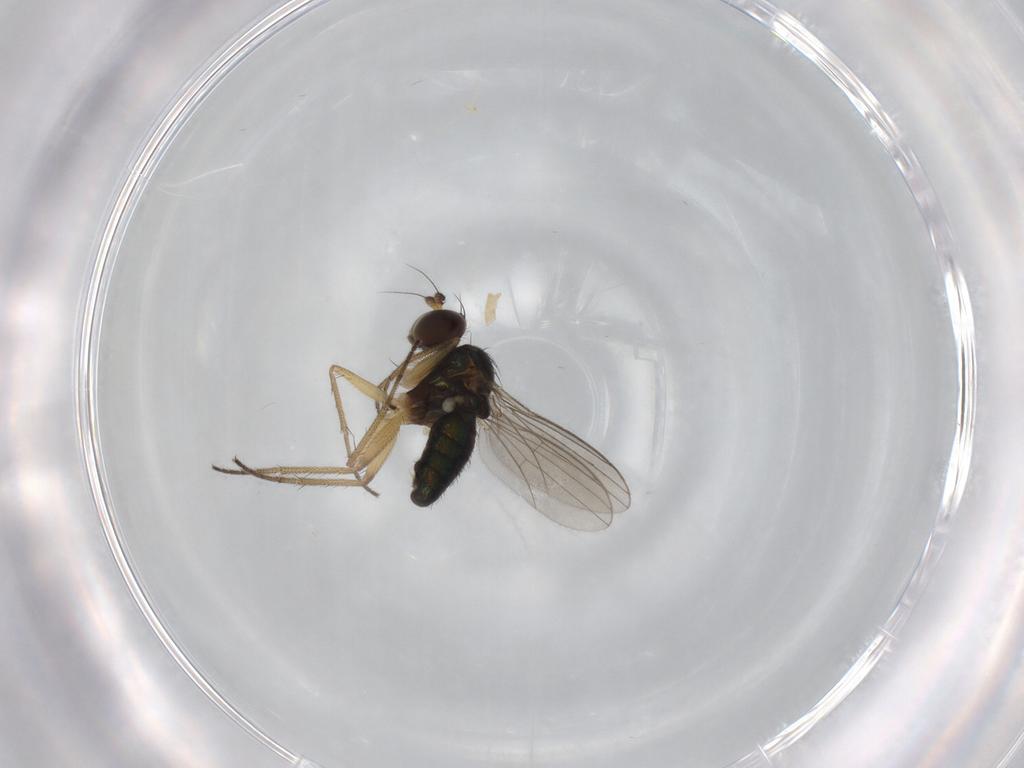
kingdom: Animalia
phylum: Arthropoda
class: Insecta
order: Diptera
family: Dolichopodidae
